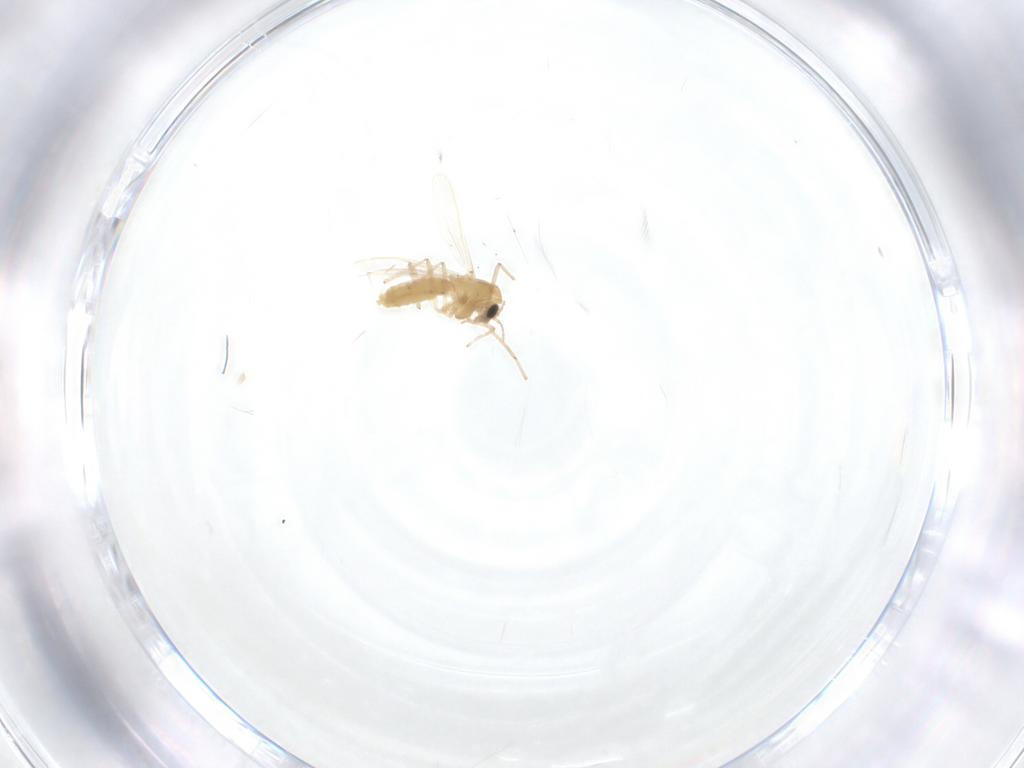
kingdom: Animalia
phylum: Arthropoda
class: Insecta
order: Diptera
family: Chironomidae
